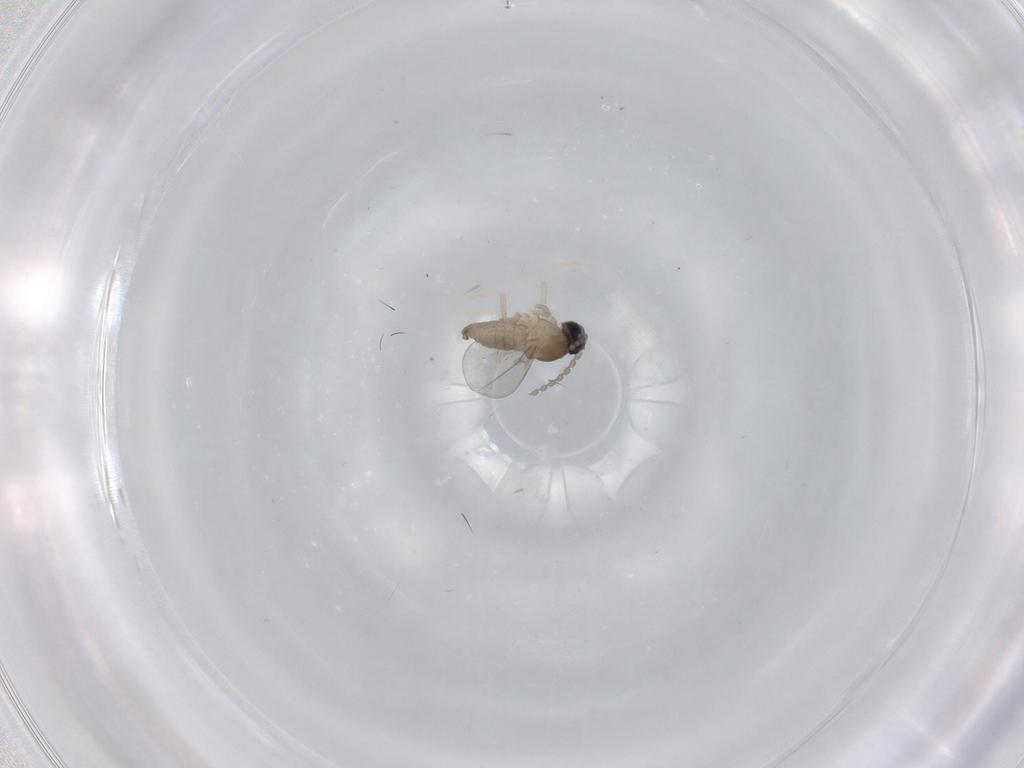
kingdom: Animalia
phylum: Arthropoda
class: Insecta
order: Diptera
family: Cecidomyiidae
